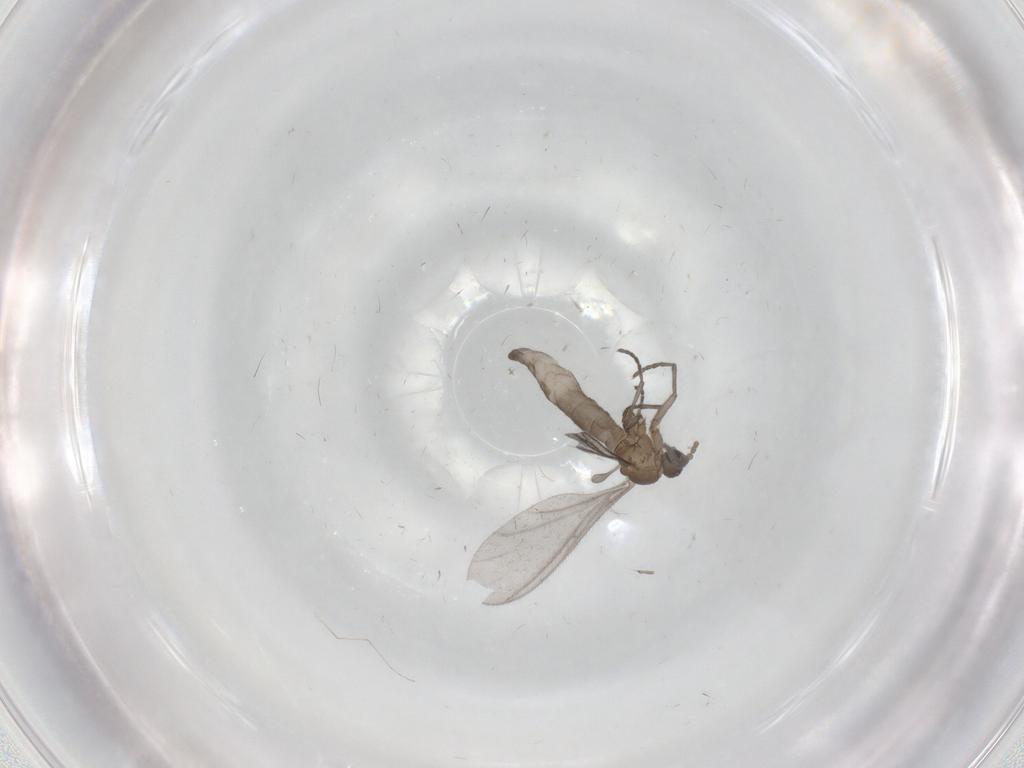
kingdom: Animalia
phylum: Arthropoda
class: Insecta
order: Diptera
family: Sciaridae
